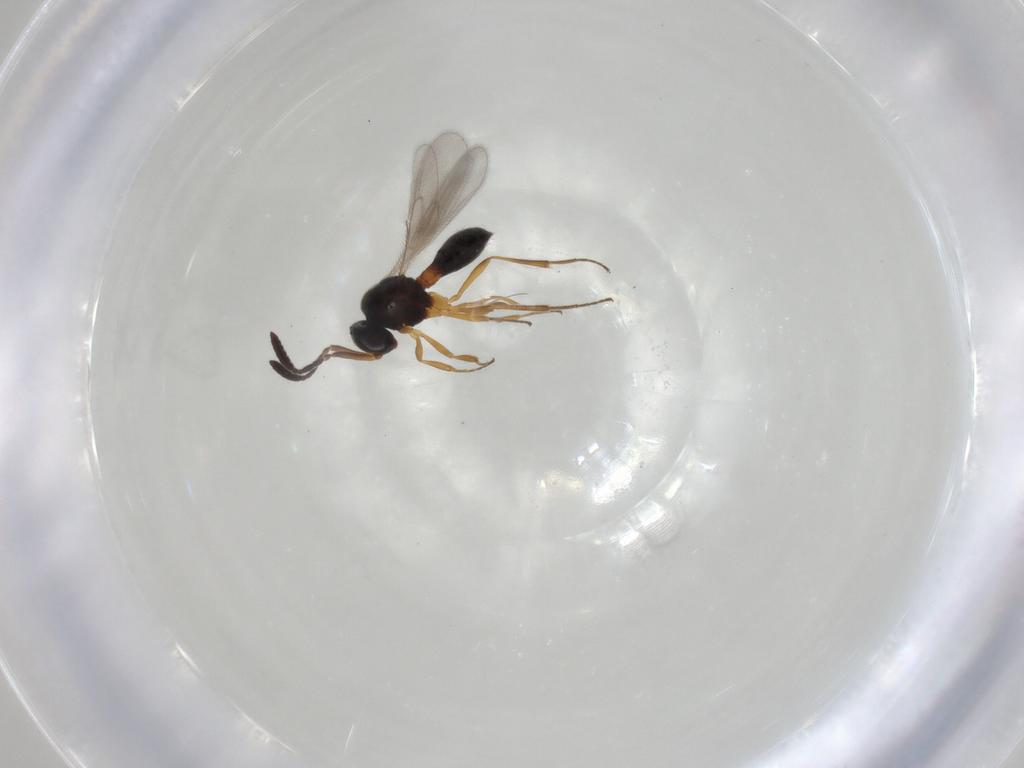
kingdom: Animalia
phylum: Arthropoda
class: Insecta
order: Hymenoptera
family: Scelionidae
